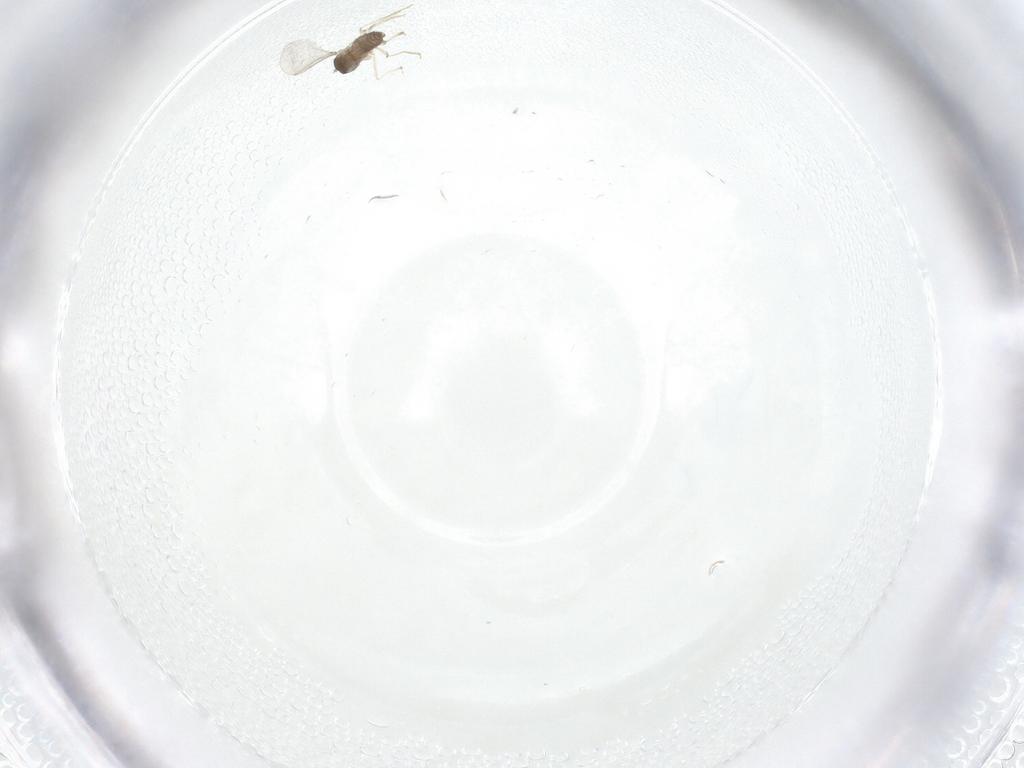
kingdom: Animalia
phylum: Arthropoda
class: Insecta
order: Diptera
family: Cecidomyiidae
